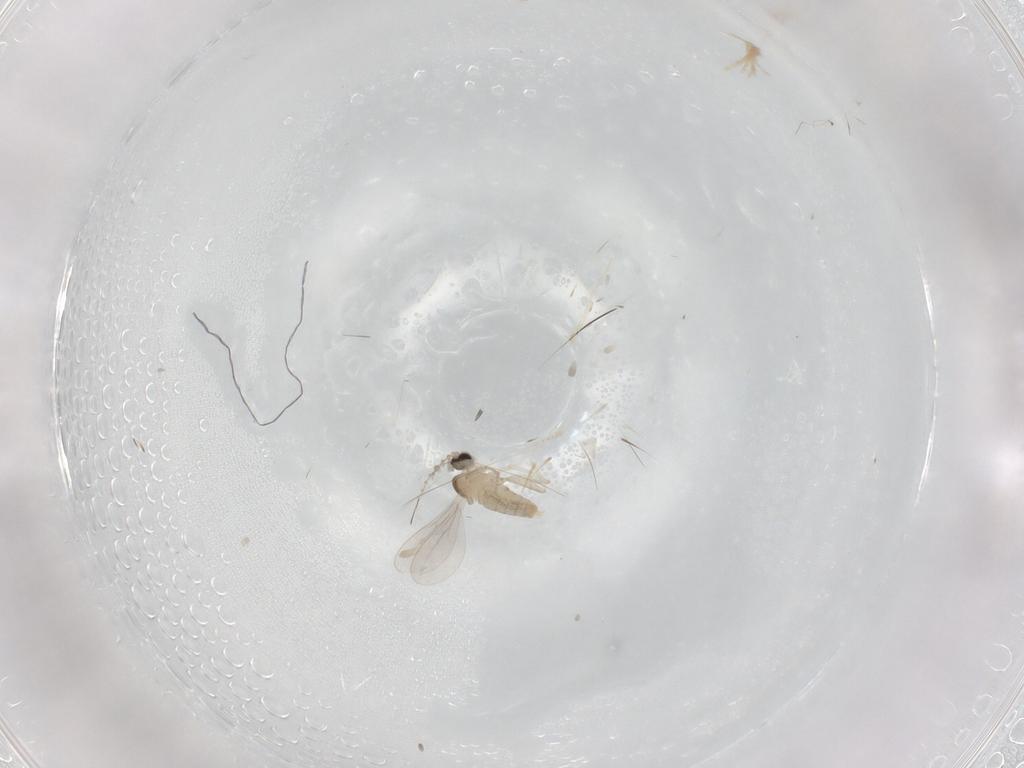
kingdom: Animalia
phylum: Arthropoda
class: Insecta
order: Diptera
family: Cecidomyiidae
